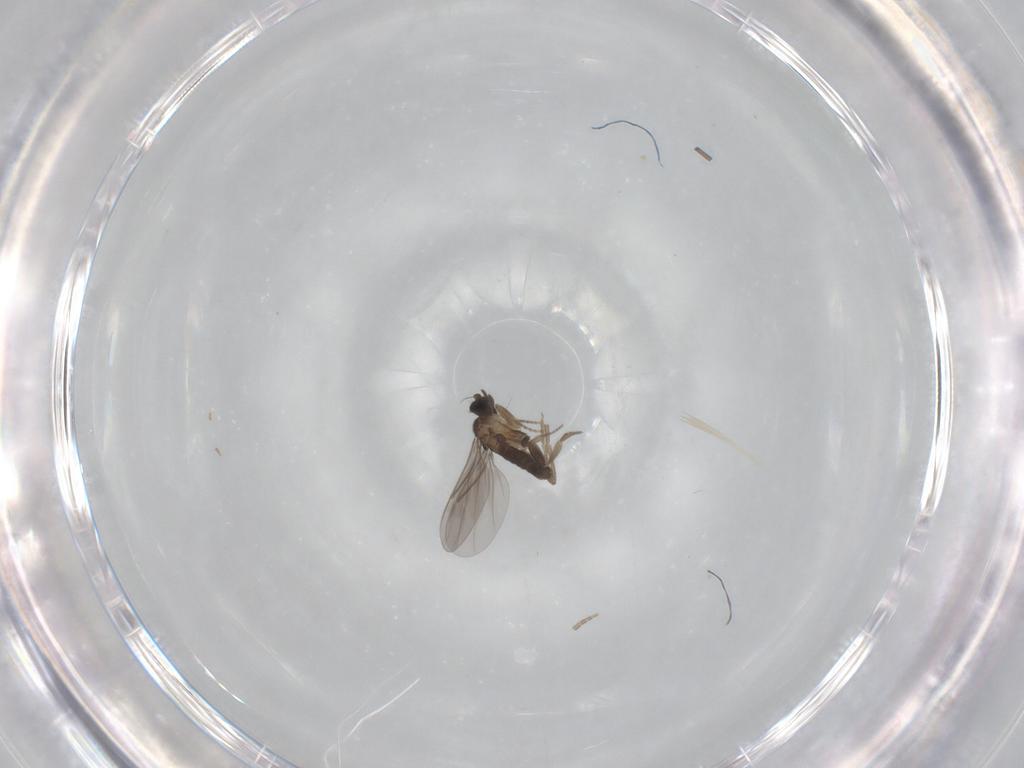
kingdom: Animalia
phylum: Arthropoda
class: Insecta
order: Diptera
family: Phoridae
